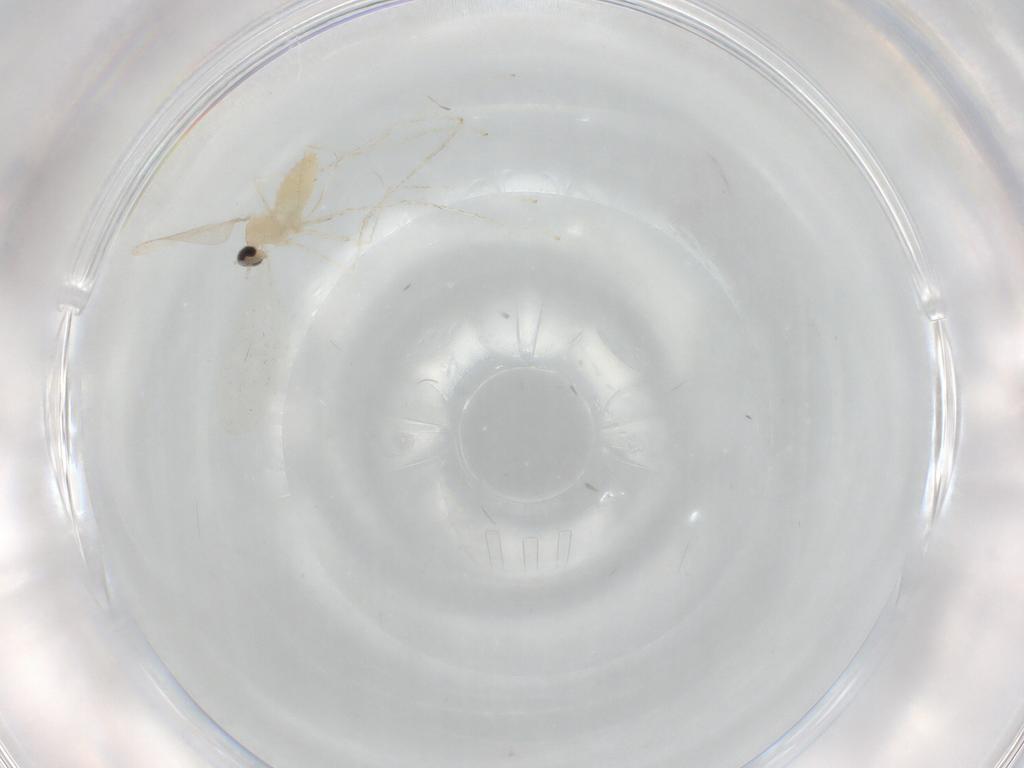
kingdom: Animalia
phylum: Arthropoda
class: Insecta
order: Diptera
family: Cecidomyiidae
